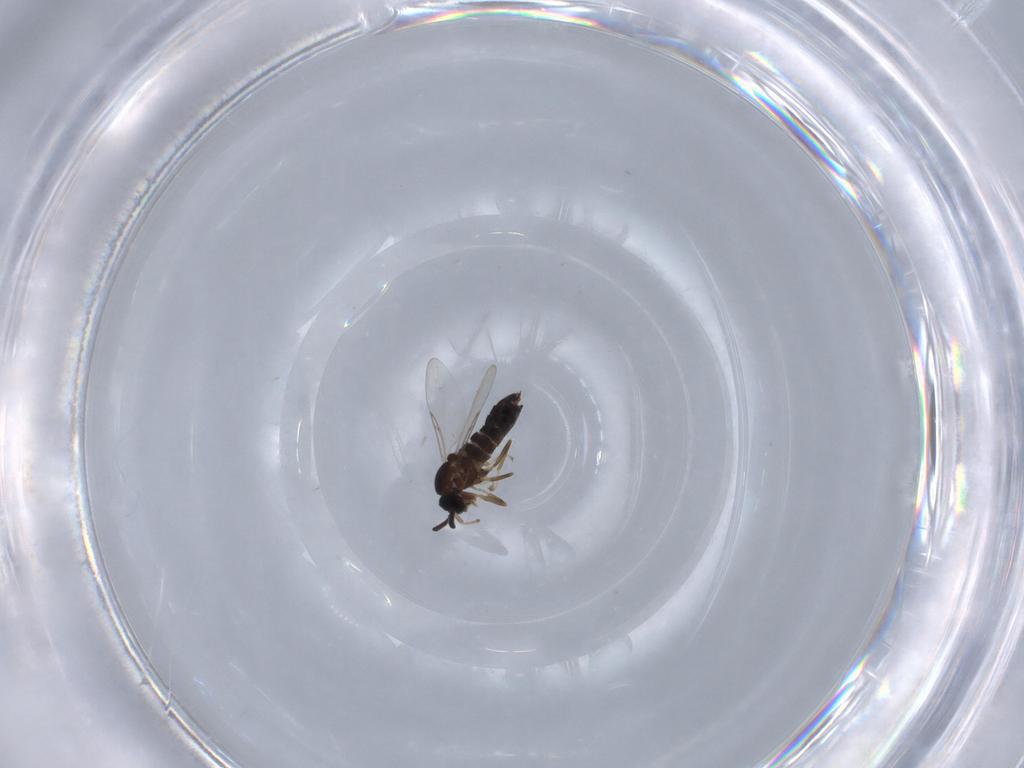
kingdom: Animalia
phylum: Arthropoda
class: Insecta
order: Diptera
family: Scatopsidae
